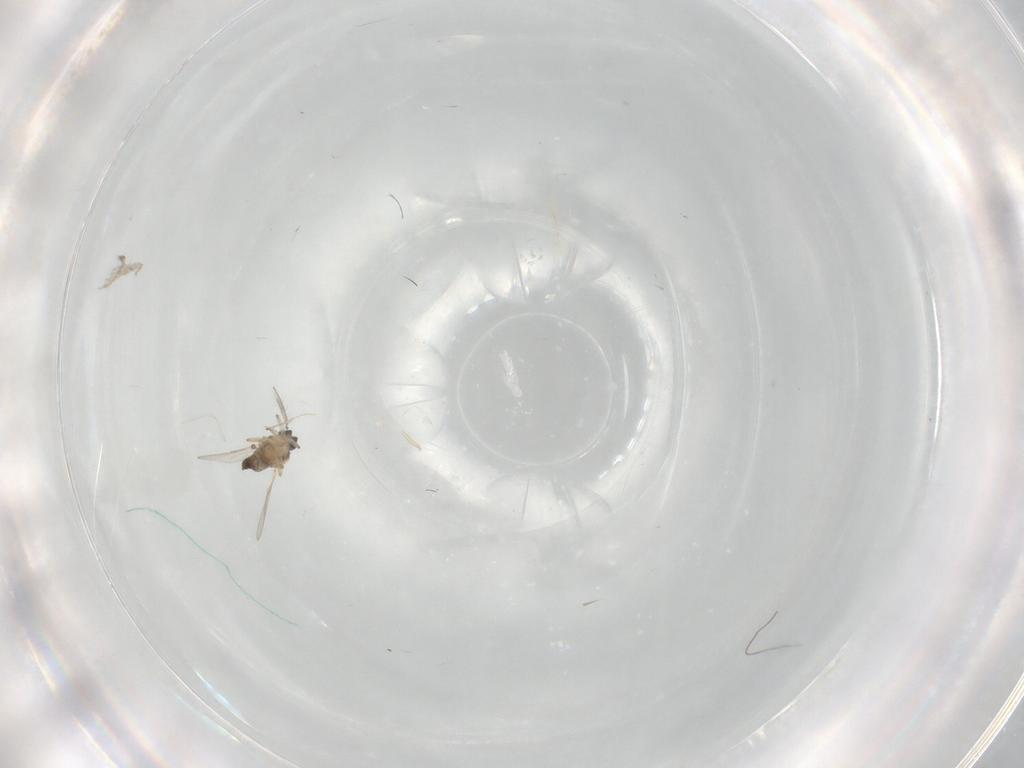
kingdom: Animalia
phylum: Arthropoda
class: Insecta
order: Diptera
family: Ceratopogonidae
